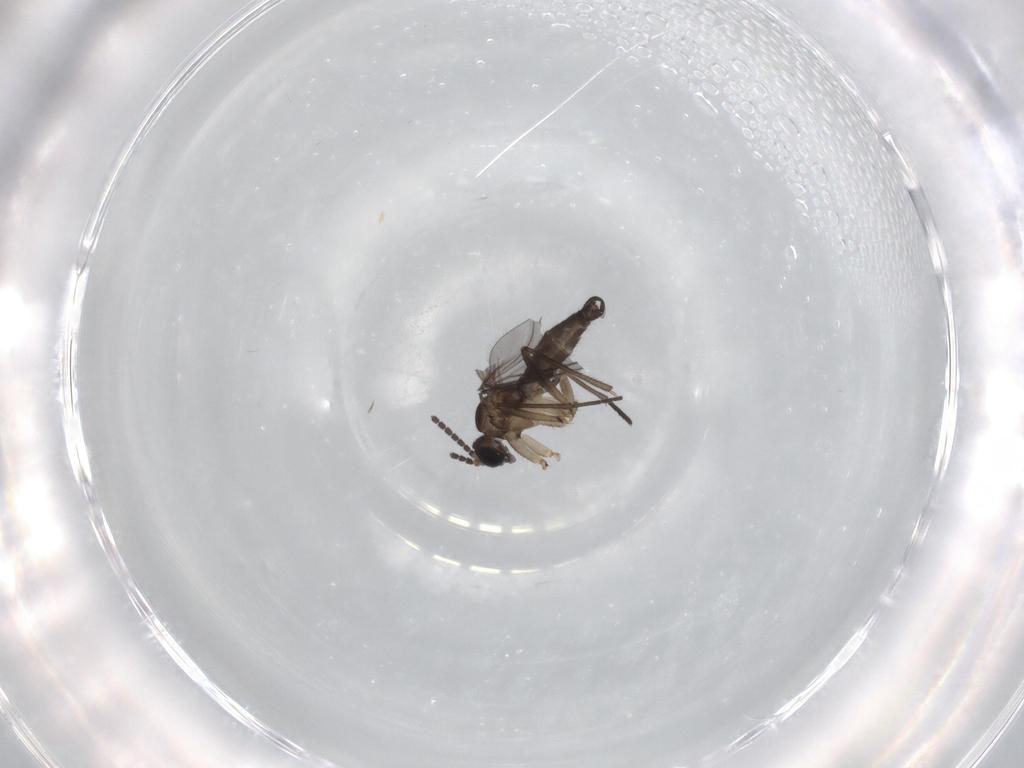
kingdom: Animalia
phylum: Arthropoda
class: Insecta
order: Diptera
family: Sciaridae
